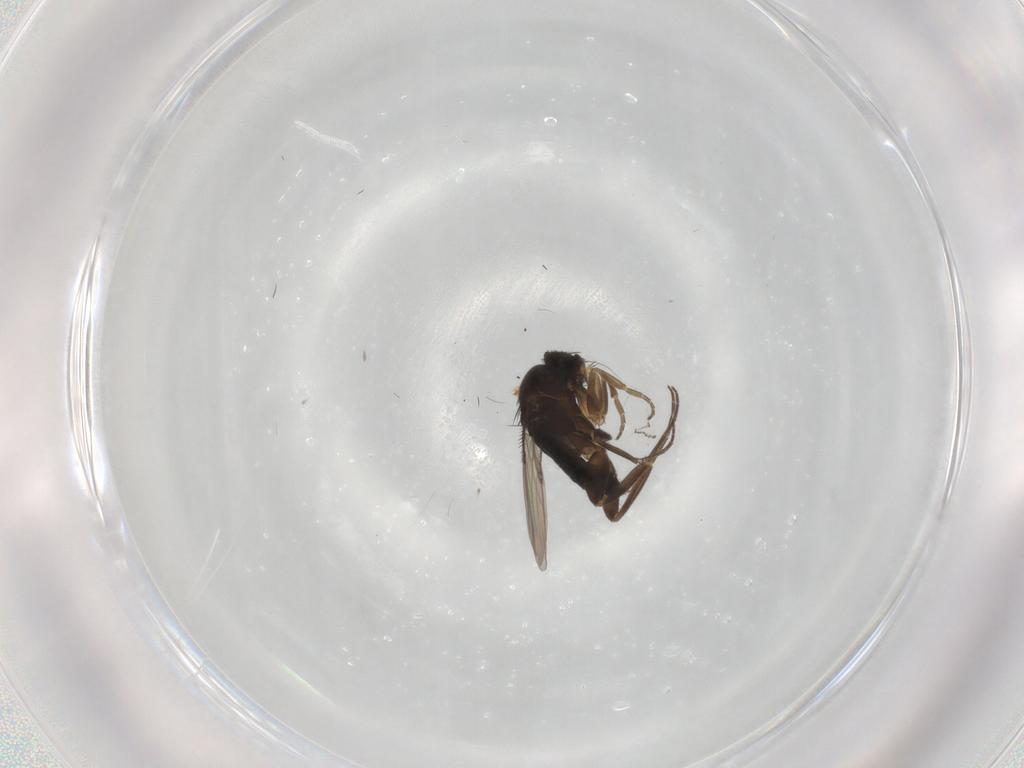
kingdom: Animalia
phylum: Arthropoda
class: Insecta
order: Diptera
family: Phoridae
